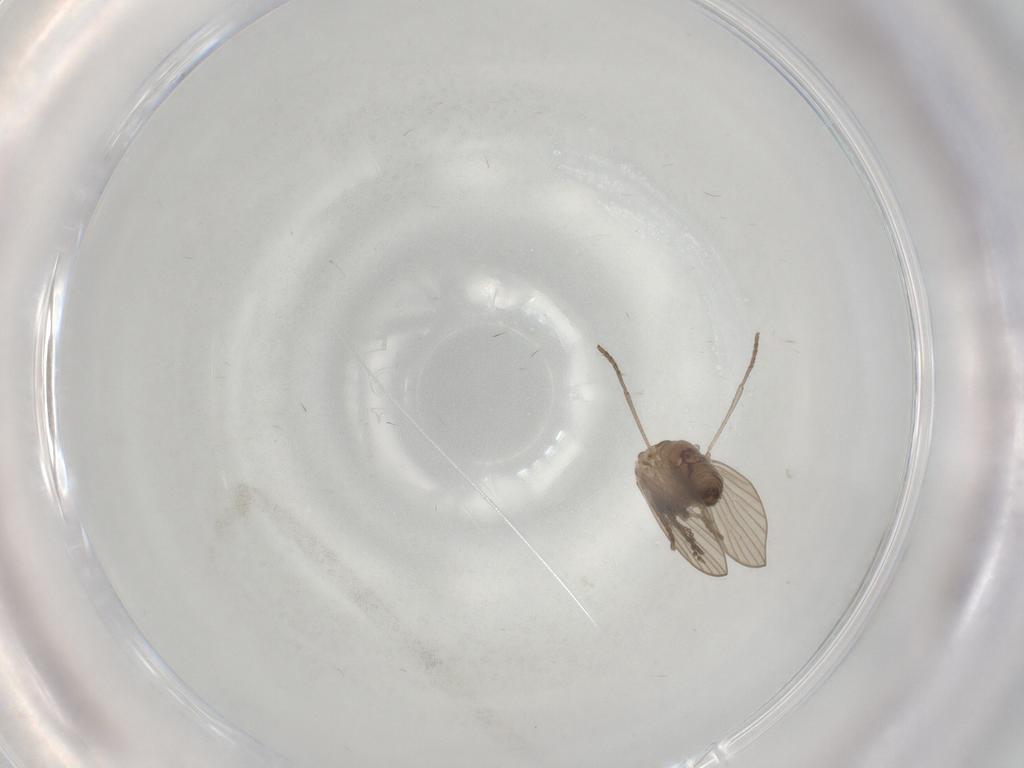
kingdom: Animalia
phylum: Arthropoda
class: Insecta
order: Diptera
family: Psychodidae
